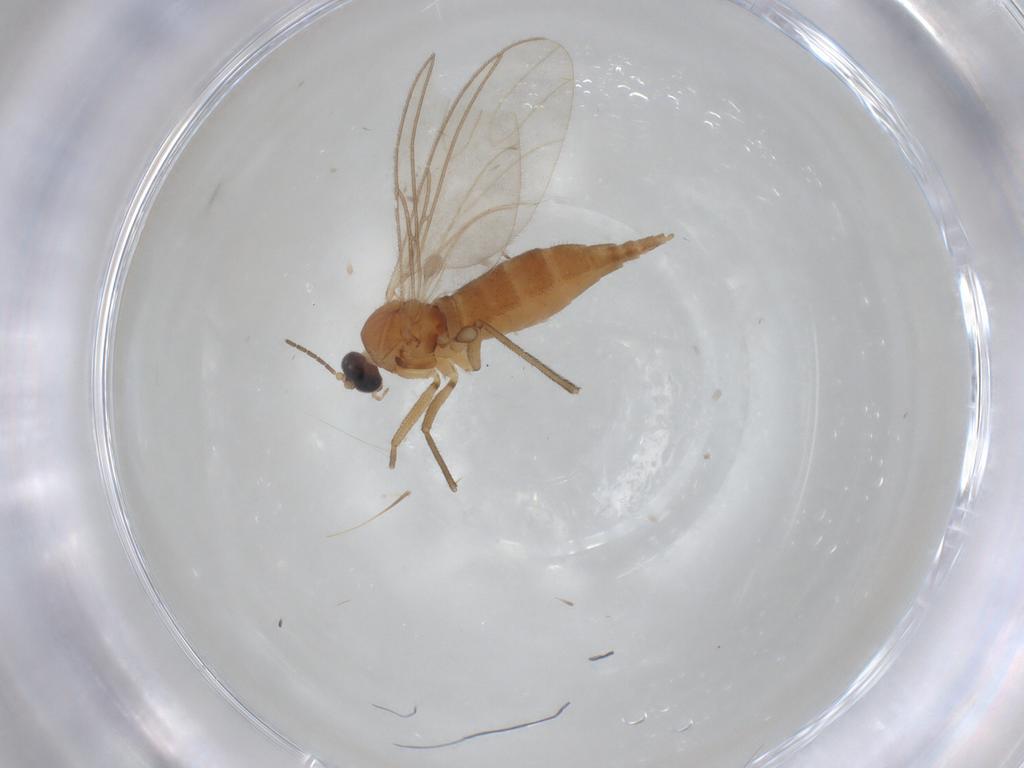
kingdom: Animalia
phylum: Arthropoda
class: Insecta
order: Diptera
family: Sciaridae
